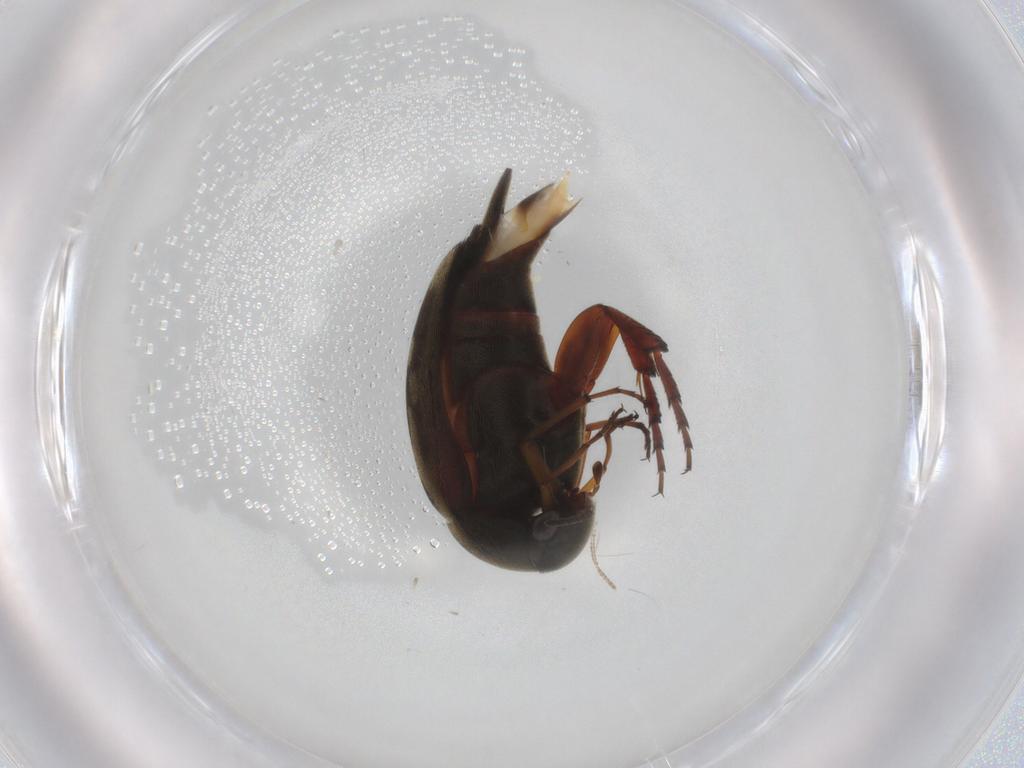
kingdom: Animalia
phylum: Arthropoda
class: Insecta
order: Coleoptera
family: Mordellidae
